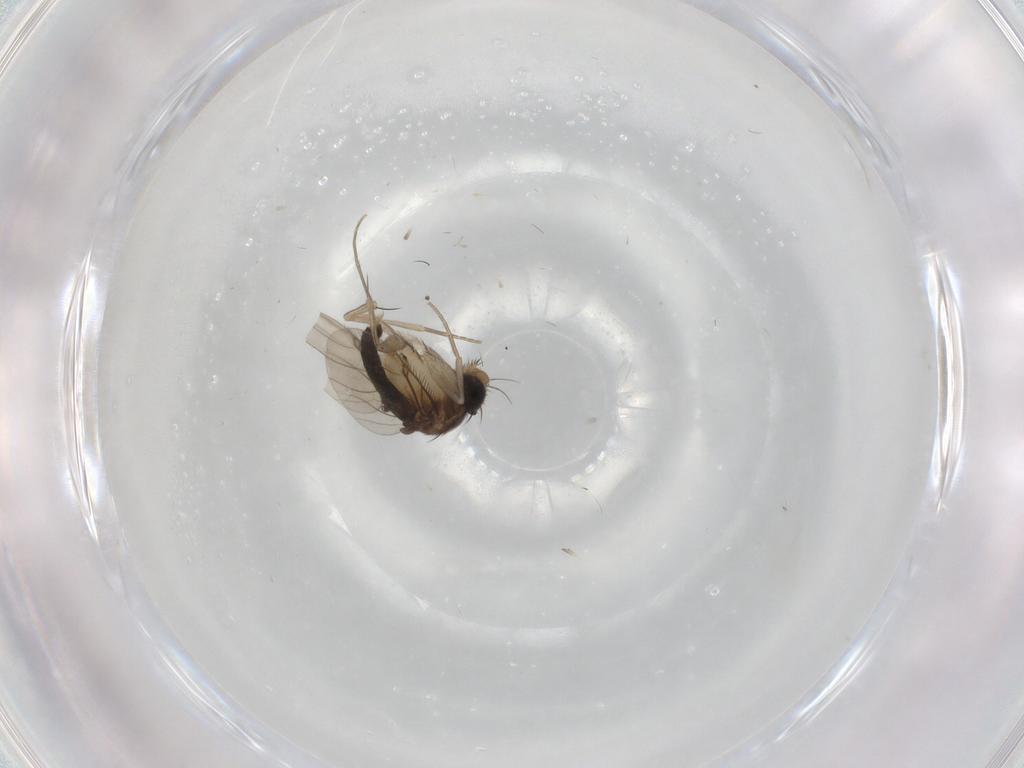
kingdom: Animalia
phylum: Arthropoda
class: Insecta
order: Diptera
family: Phoridae
